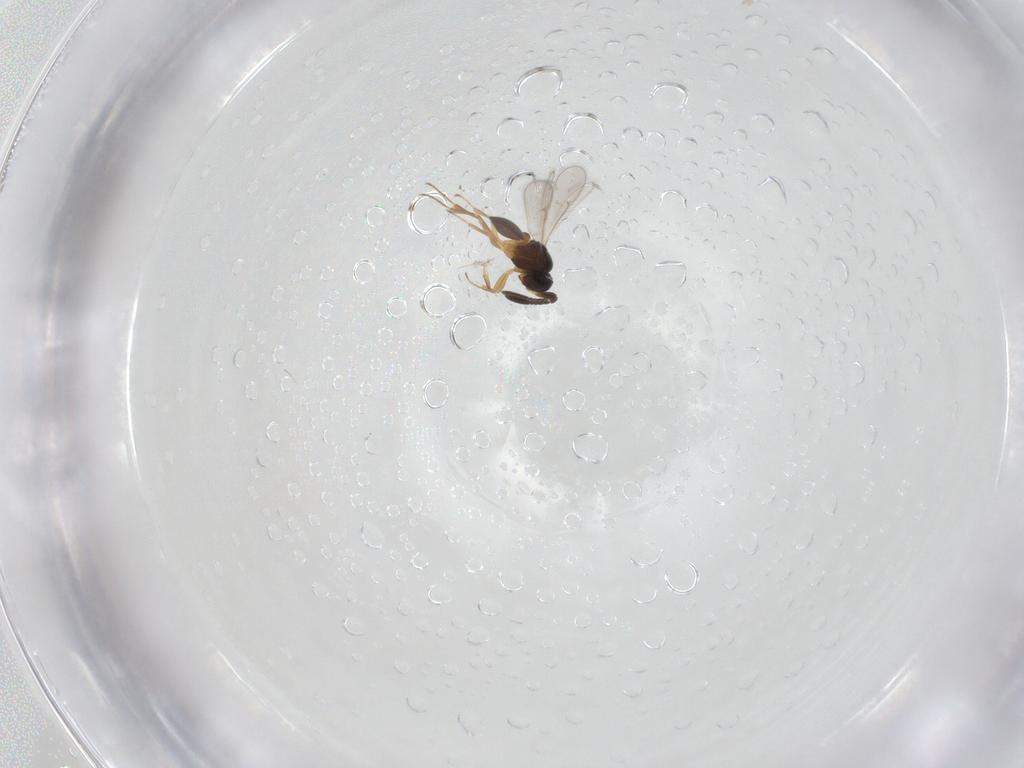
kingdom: Animalia
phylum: Arthropoda
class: Insecta
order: Hymenoptera
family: Scelionidae
